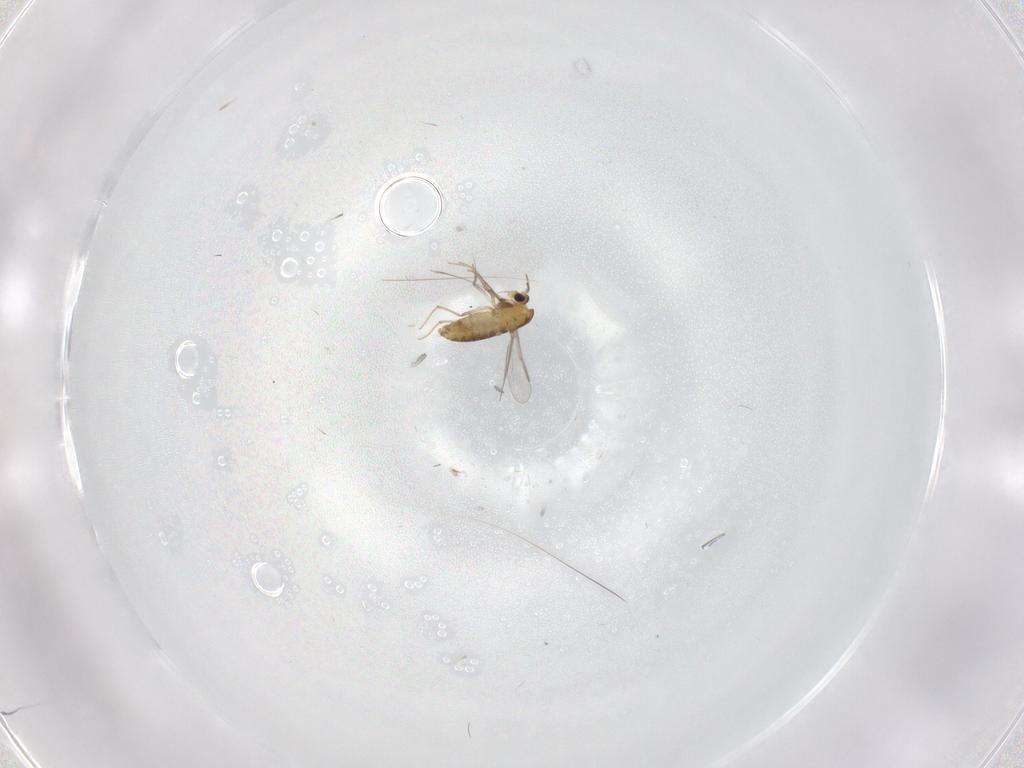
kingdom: Animalia
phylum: Arthropoda
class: Insecta
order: Diptera
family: Chironomidae
